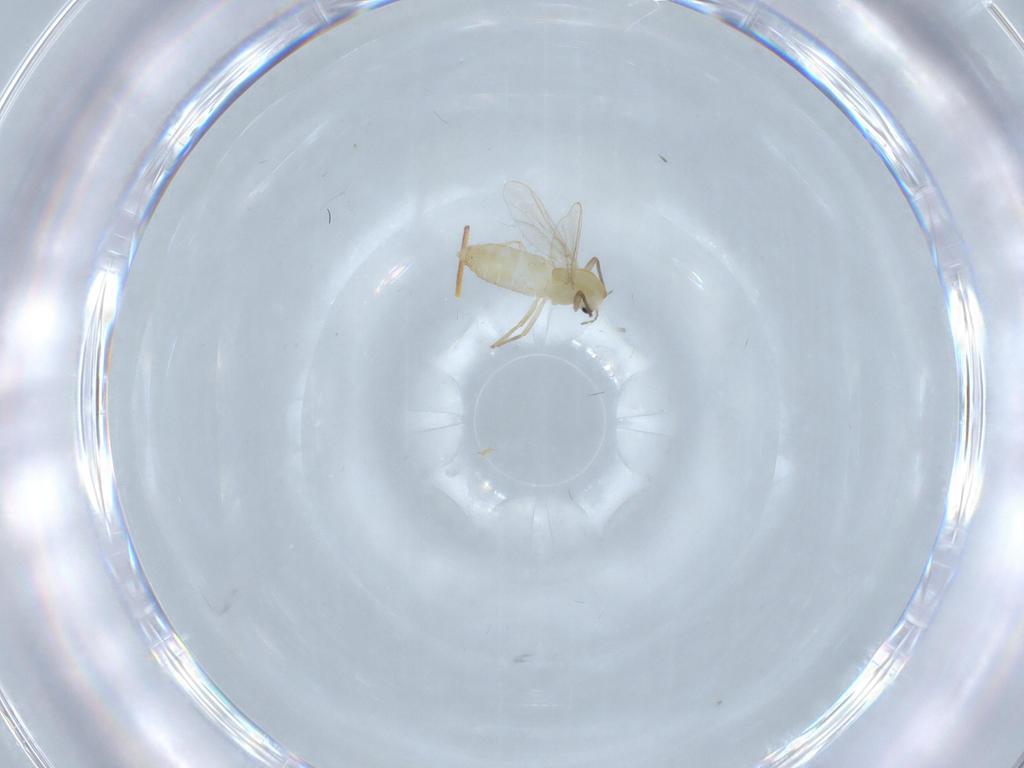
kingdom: Animalia
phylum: Arthropoda
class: Insecta
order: Diptera
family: Chironomidae
